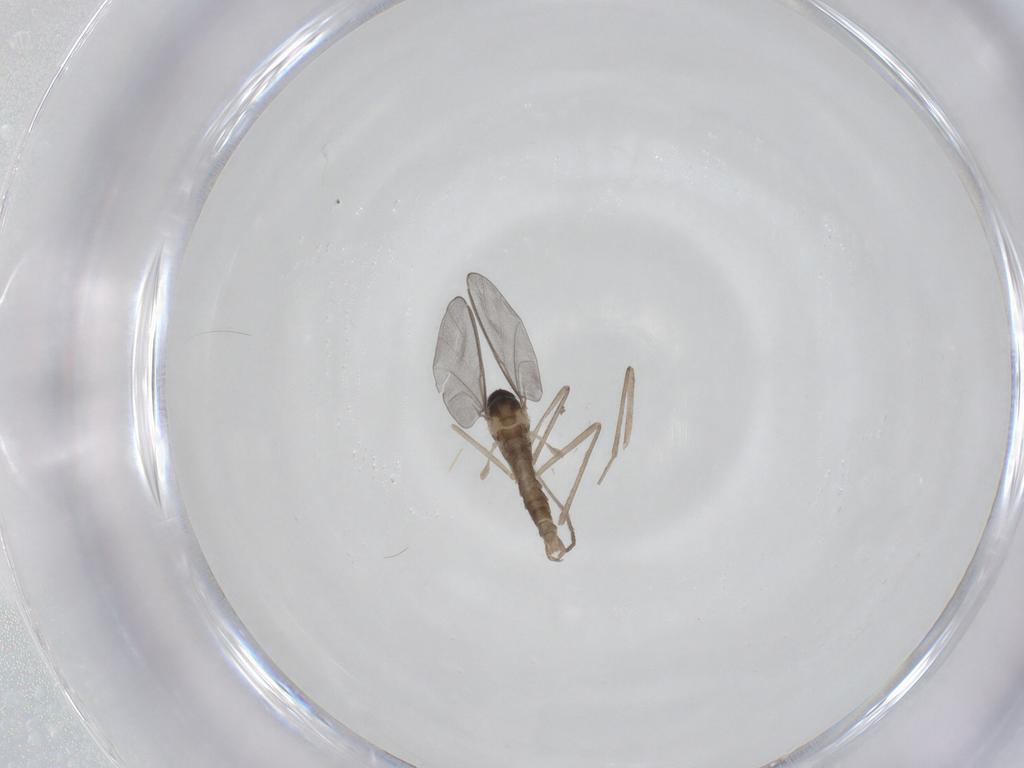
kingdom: Animalia
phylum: Arthropoda
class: Insecta
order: Diptera
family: Cecidomyiidae
